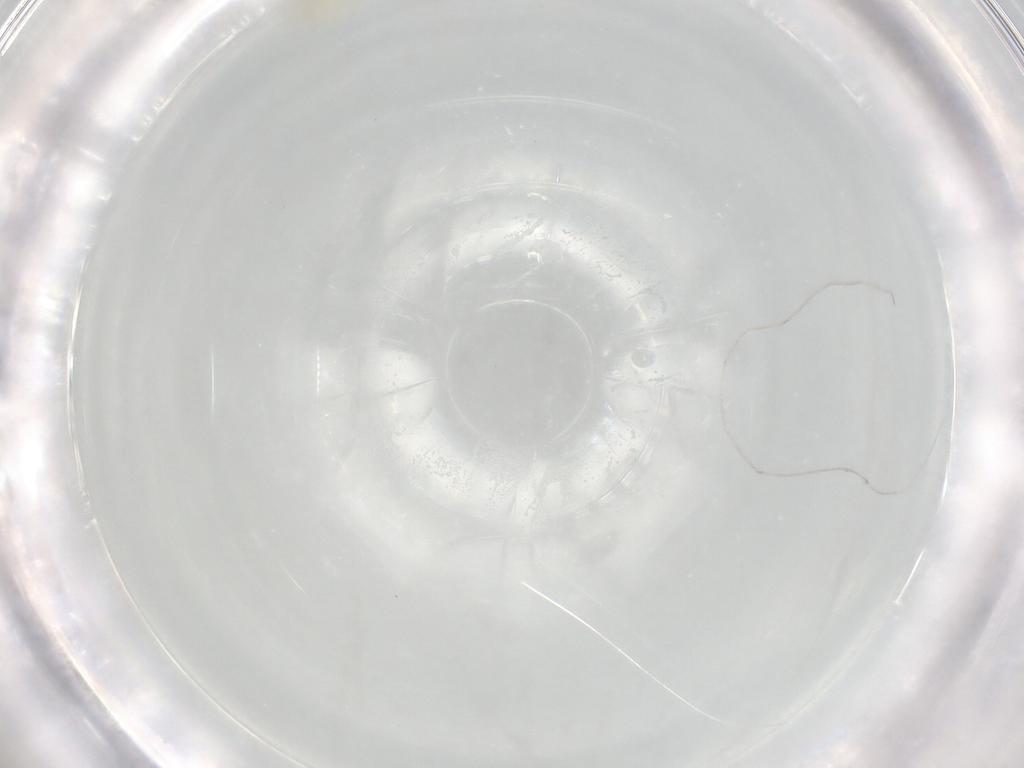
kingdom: Animalia
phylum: Arthropoda
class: Insecta
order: Hemiptera
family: Aleyrodidae
